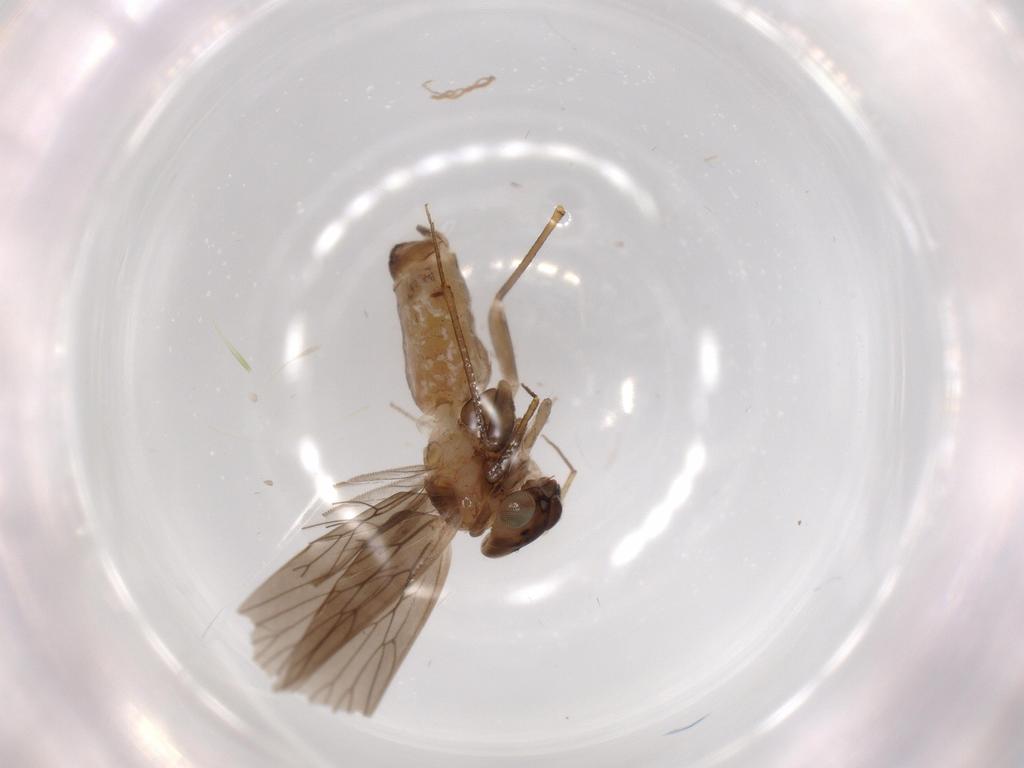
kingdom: Animalia
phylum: Arthropoda
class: Insecta
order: Psocodea
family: Lepidopsocidae
